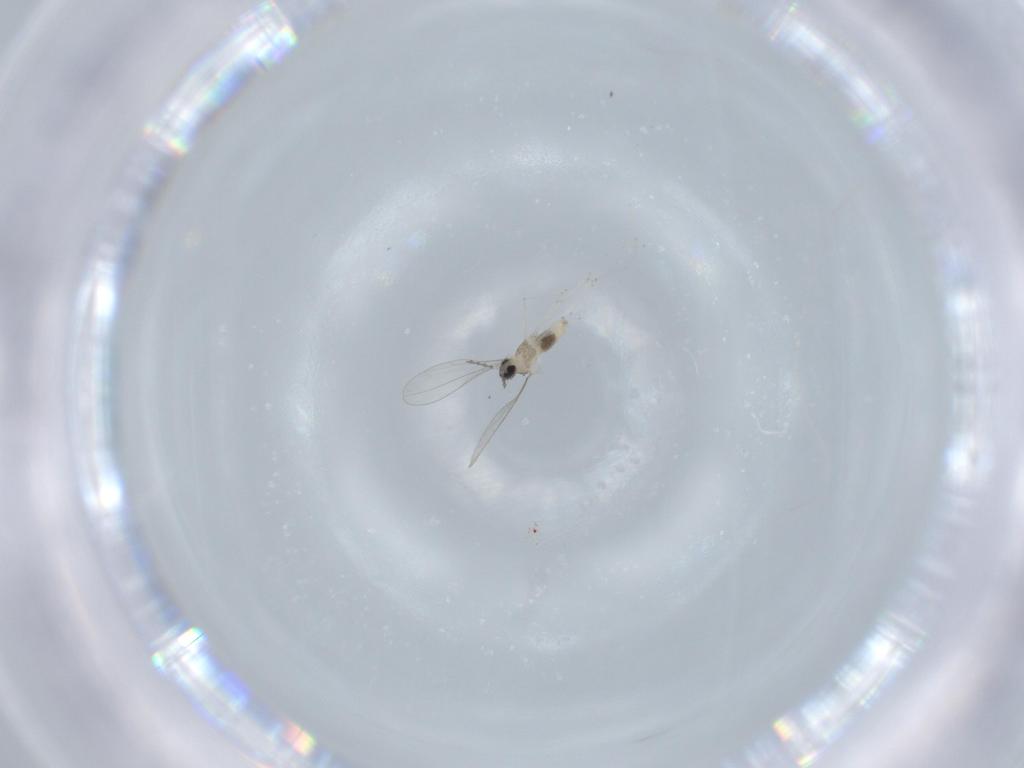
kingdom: Animalia
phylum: Arthropoda
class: Insecta
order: Diptera
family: Cecidomyiidae
